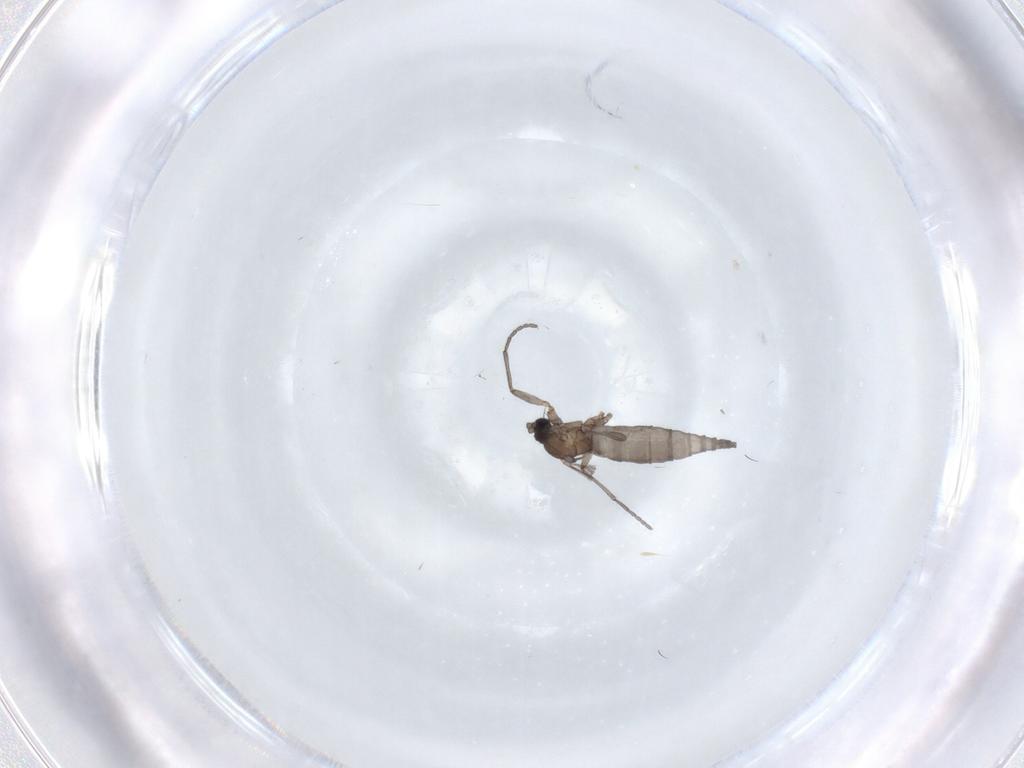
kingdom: Animalia
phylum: Arthropoda
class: Insecta
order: Diptera
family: Sciaridae
